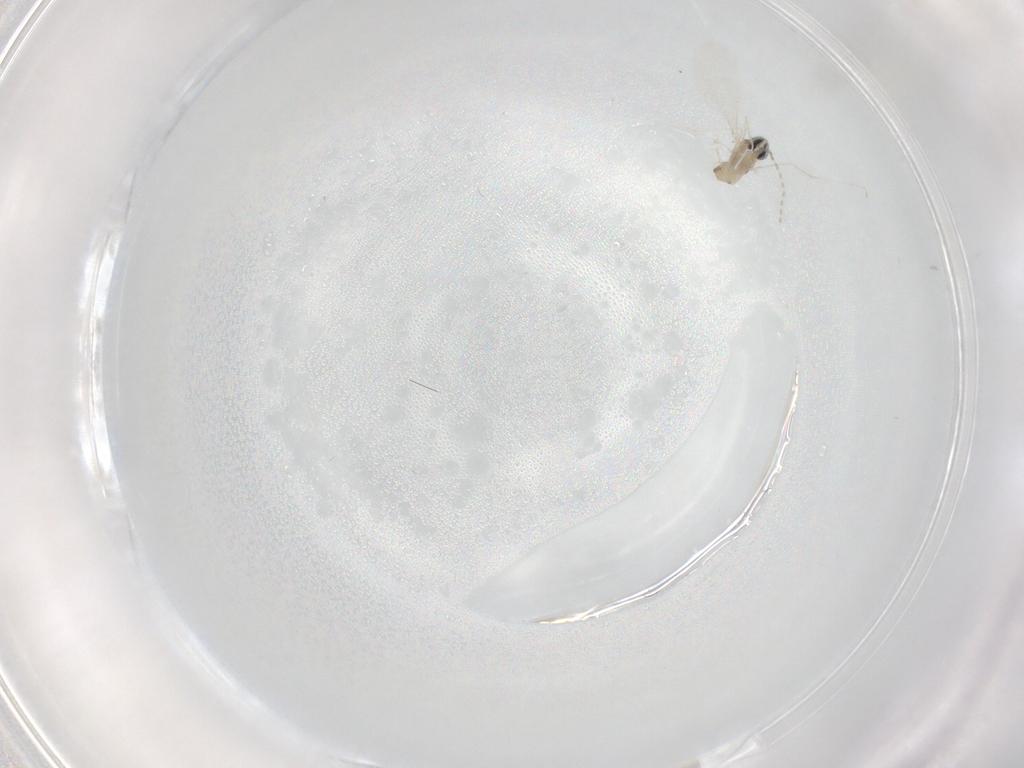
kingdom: Animalia
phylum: Arthropoda
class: Insecta
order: Diptera
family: Cecidomyiidae
